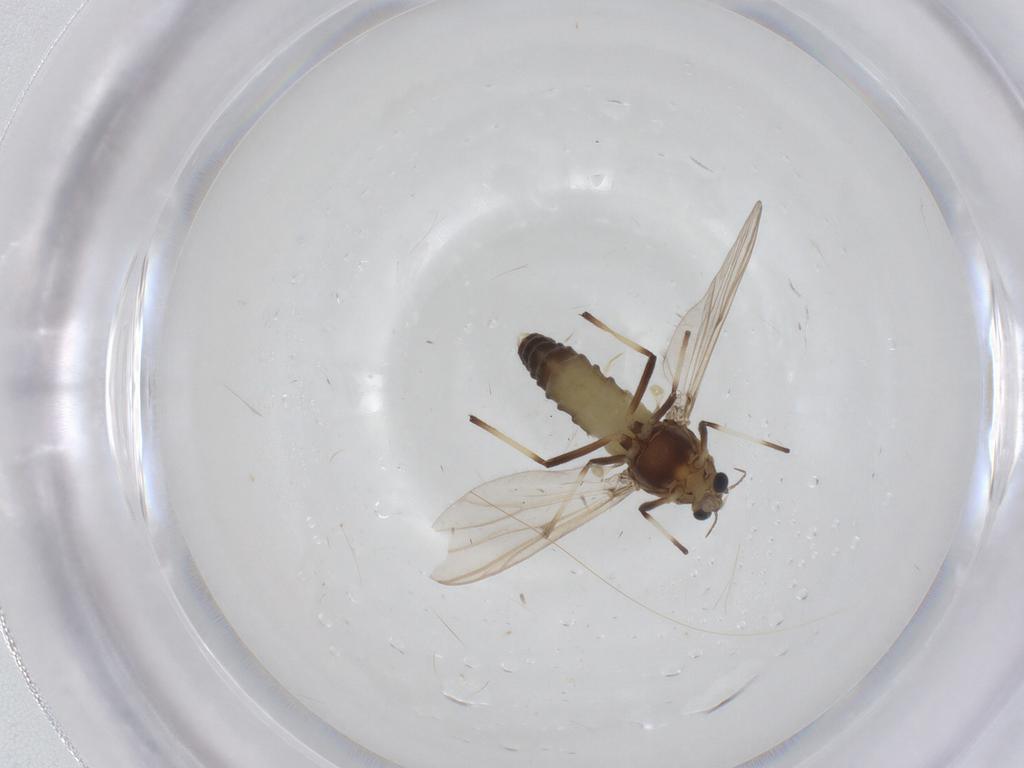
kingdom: Animalia
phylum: Arthropoda
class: Insecta
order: Diptera
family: Chironomidae
